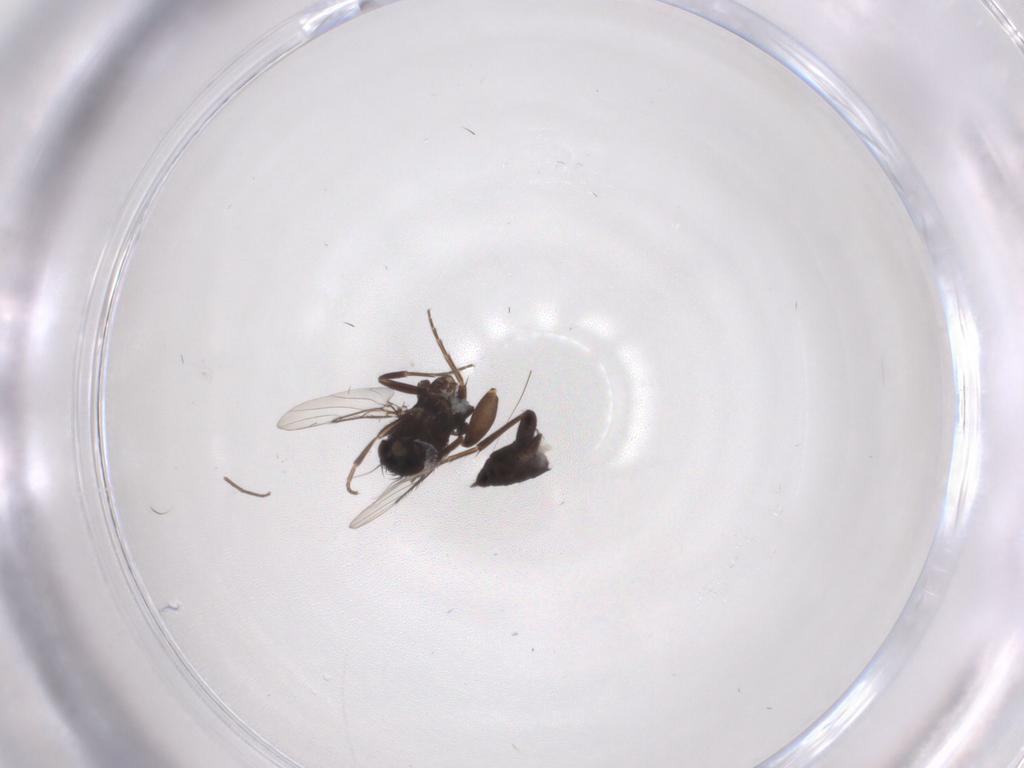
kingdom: Animalia
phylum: Arthropoda
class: Insecta
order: Diptera
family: Phoridae
